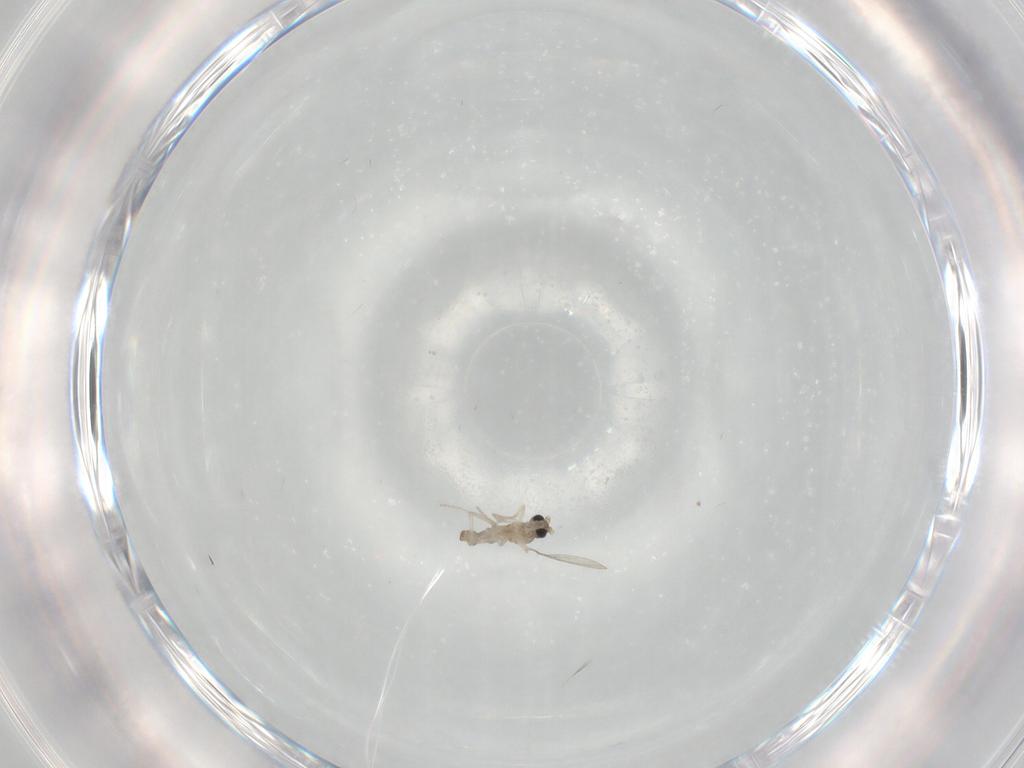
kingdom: Animalia
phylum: Arthropoda
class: Insecta
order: Diptera
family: Cecidomyiidae
